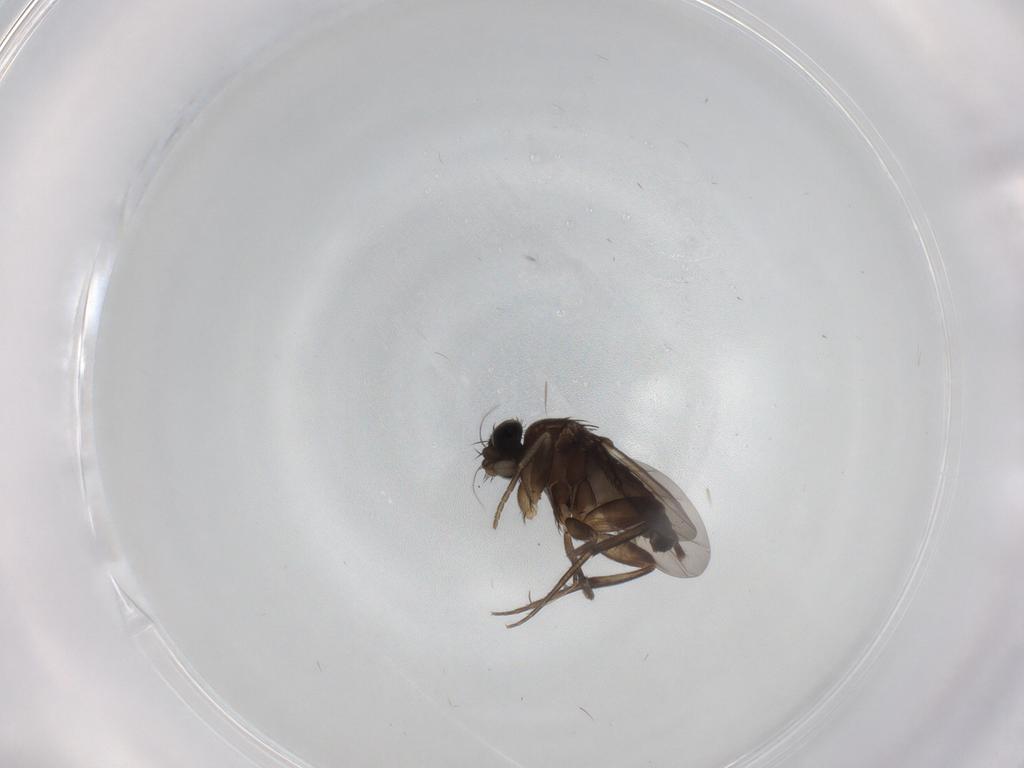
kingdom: Animalia
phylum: Arthropoda
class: Insecta
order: Diptera
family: Phoridae
